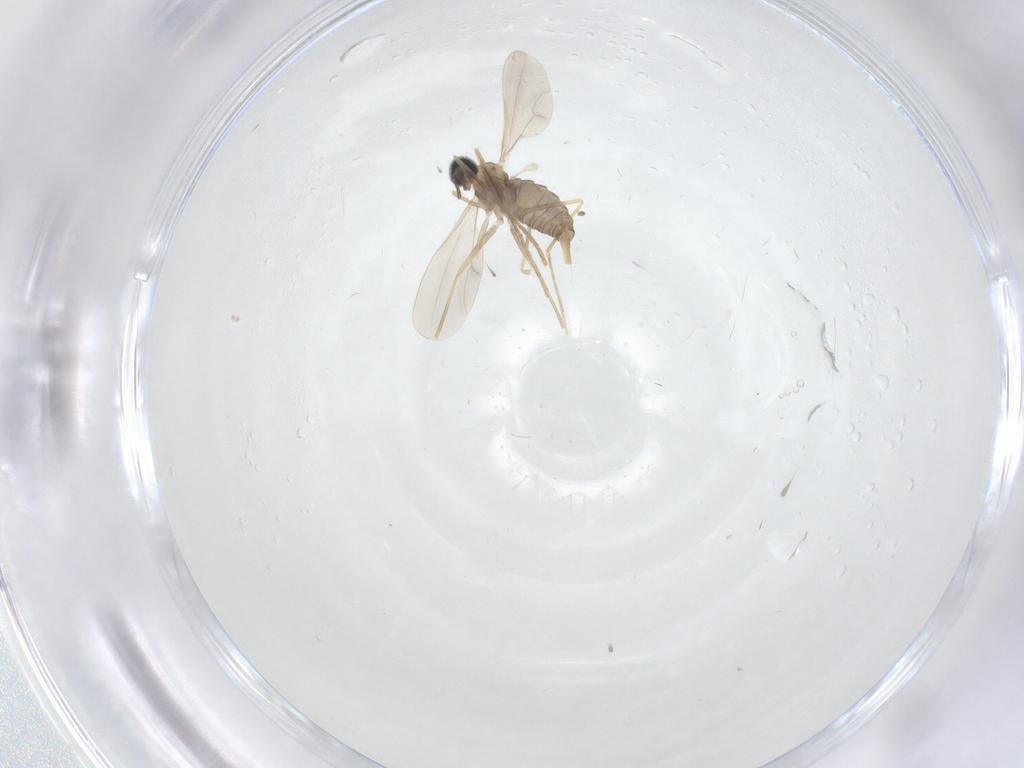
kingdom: Animalia
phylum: Arthropoda
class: Insecta
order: Diptera
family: Cecidomyiidae
